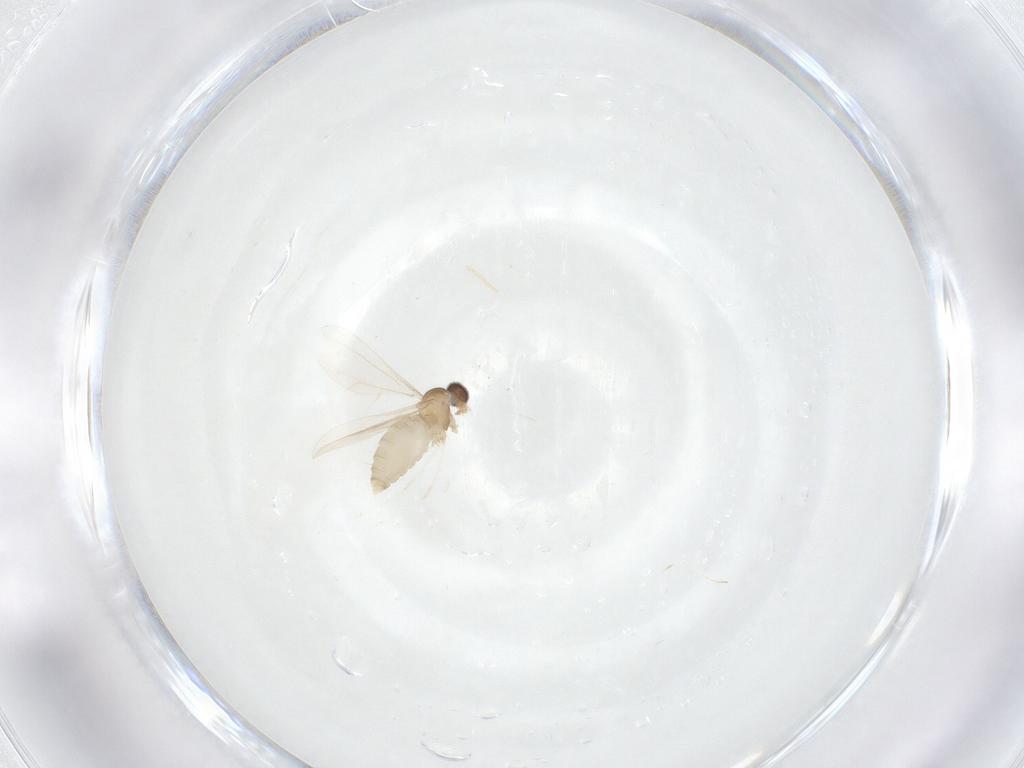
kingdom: Animalia
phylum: Arthropoda
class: Insecta
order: Diptera
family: Cecidomyiidae
